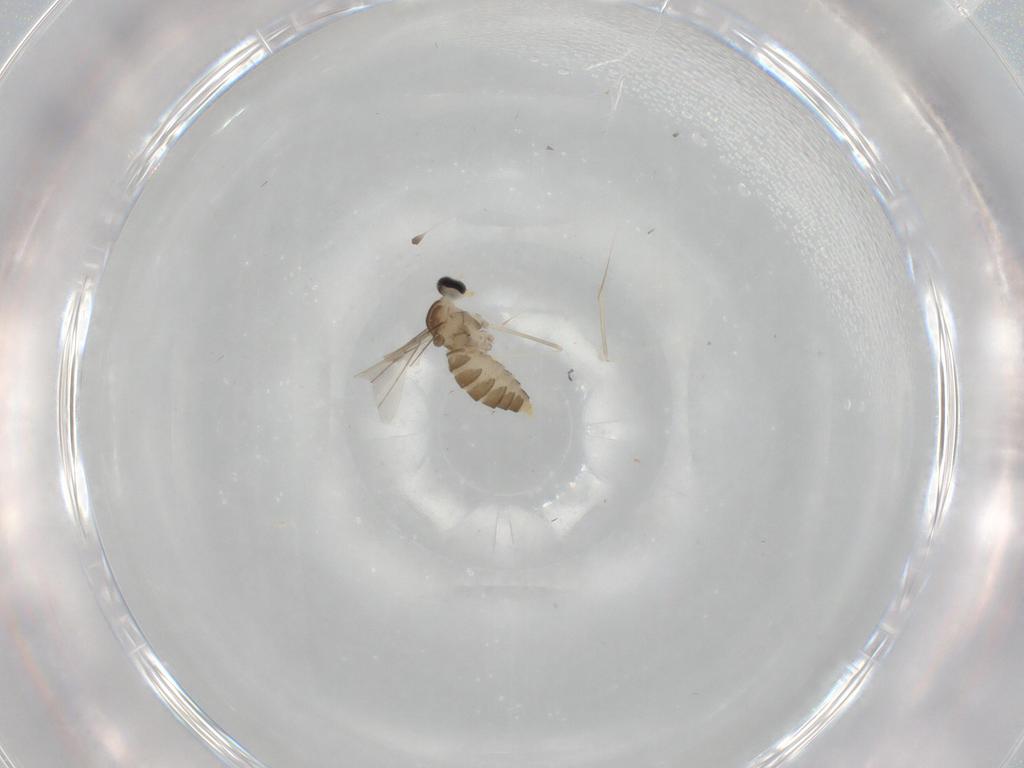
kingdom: Animalia
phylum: Arthropoda
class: Insecta
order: Diptera
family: Cecidomyiidae
